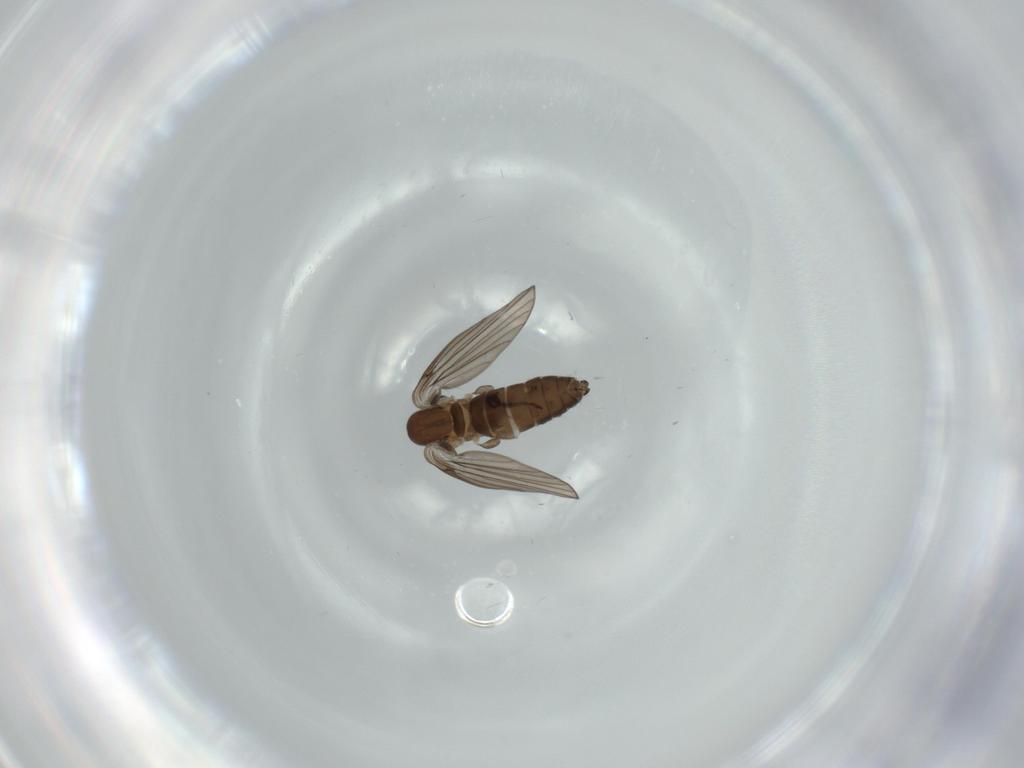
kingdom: Animalia
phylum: Arthropoda
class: Insecta
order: Diptera
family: Psychodidae
